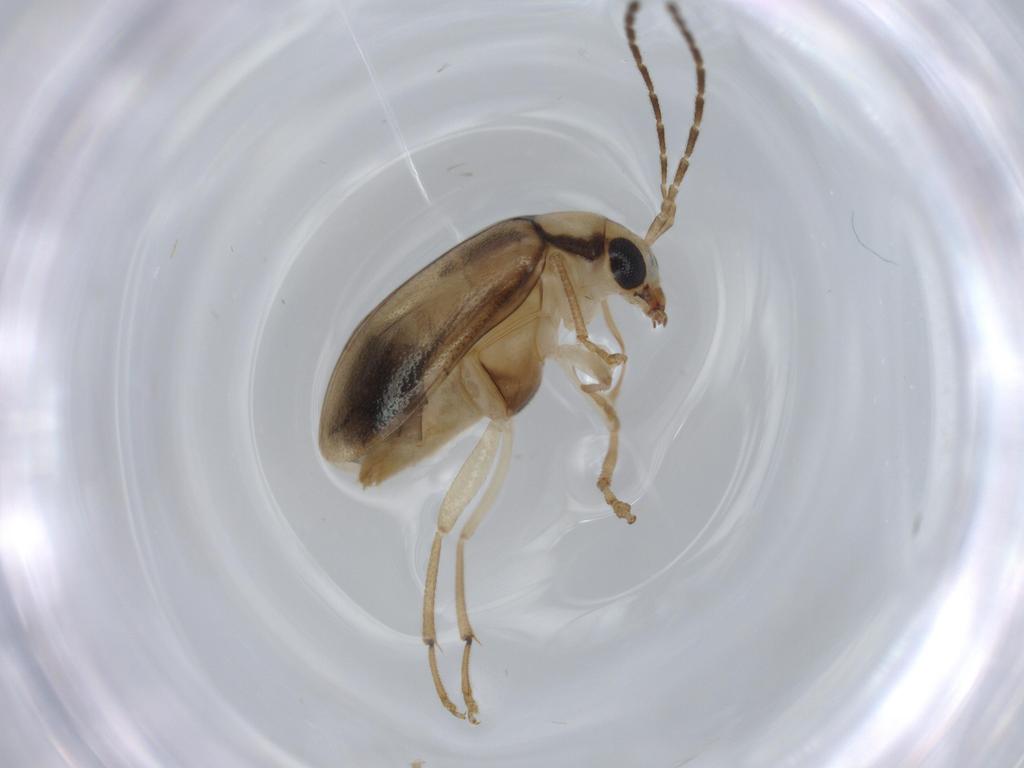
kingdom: Animalia
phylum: Arthropoda
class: Insecta
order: Coleoptera
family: Chrysomelidae
